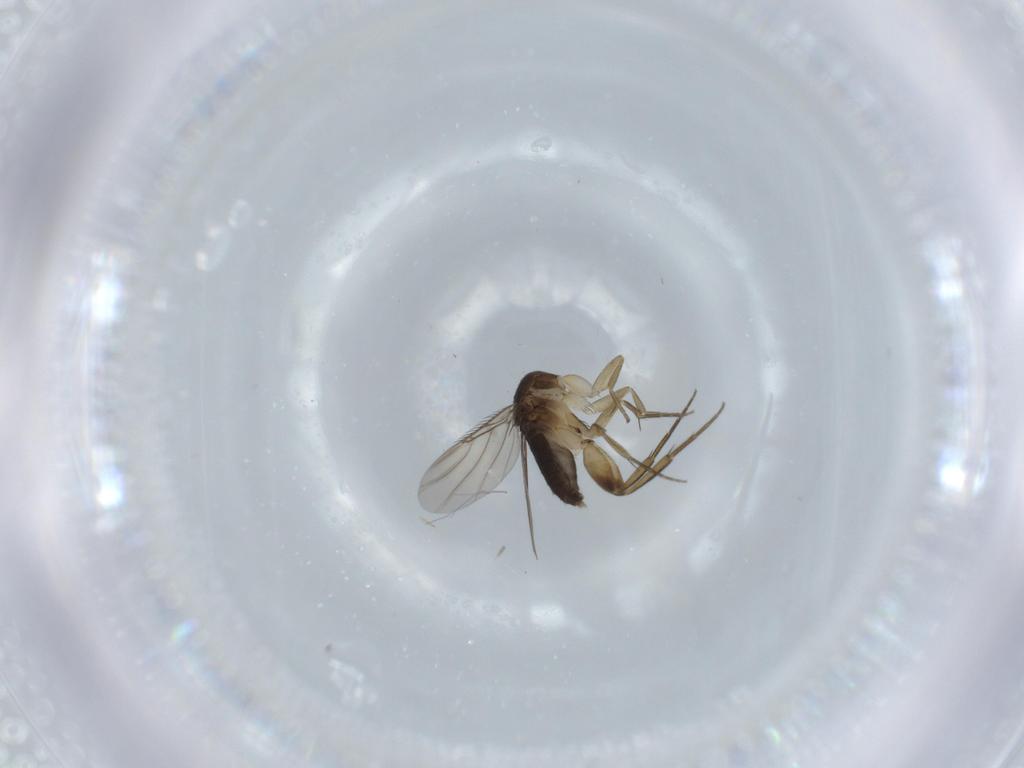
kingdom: Animalia
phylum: Arthropoda
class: Insecta
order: Diptera
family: Phoridae
